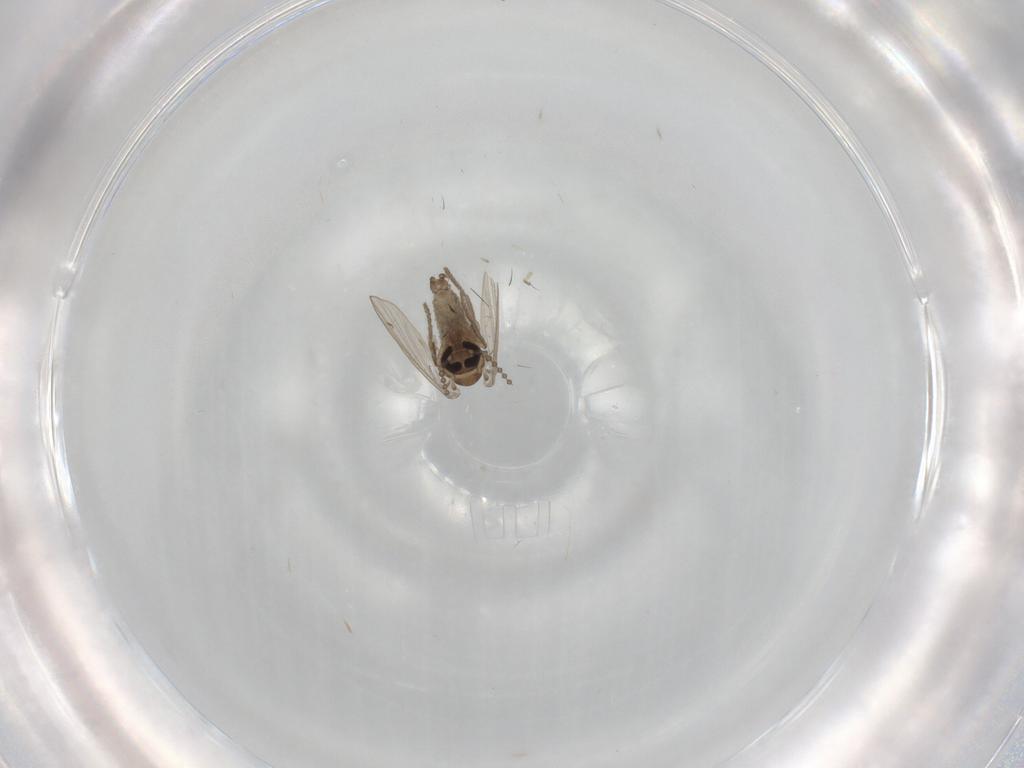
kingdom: Animalia
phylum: Arthropoda
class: Insecta
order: Diptera
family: Psychodidae
